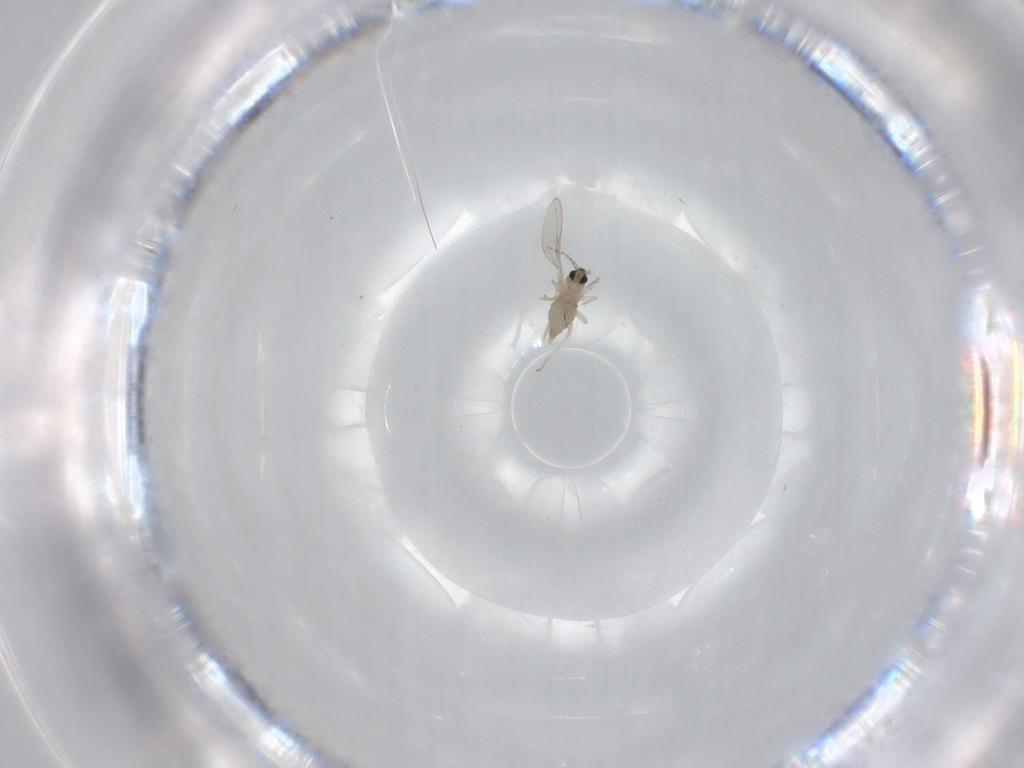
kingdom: Animalia
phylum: Arthropoda
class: Insecta
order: Diptera
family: Cecidomyiidae
